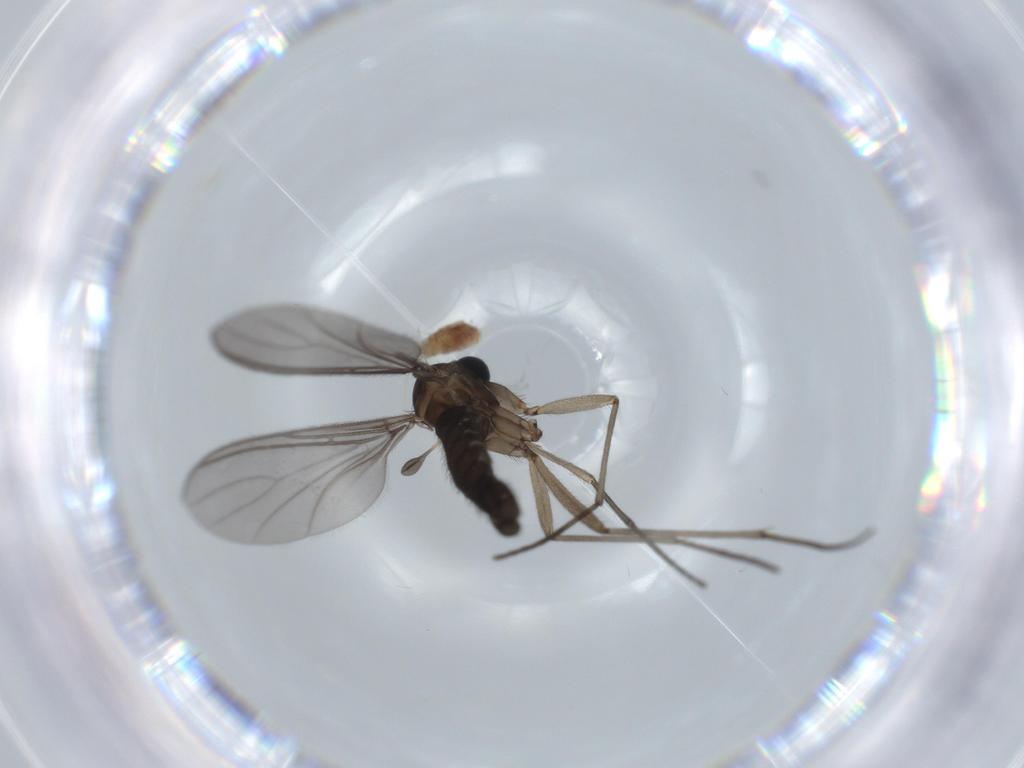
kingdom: Animalia
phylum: Arthropoda
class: Insecta
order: Diptera
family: Sciaridae
